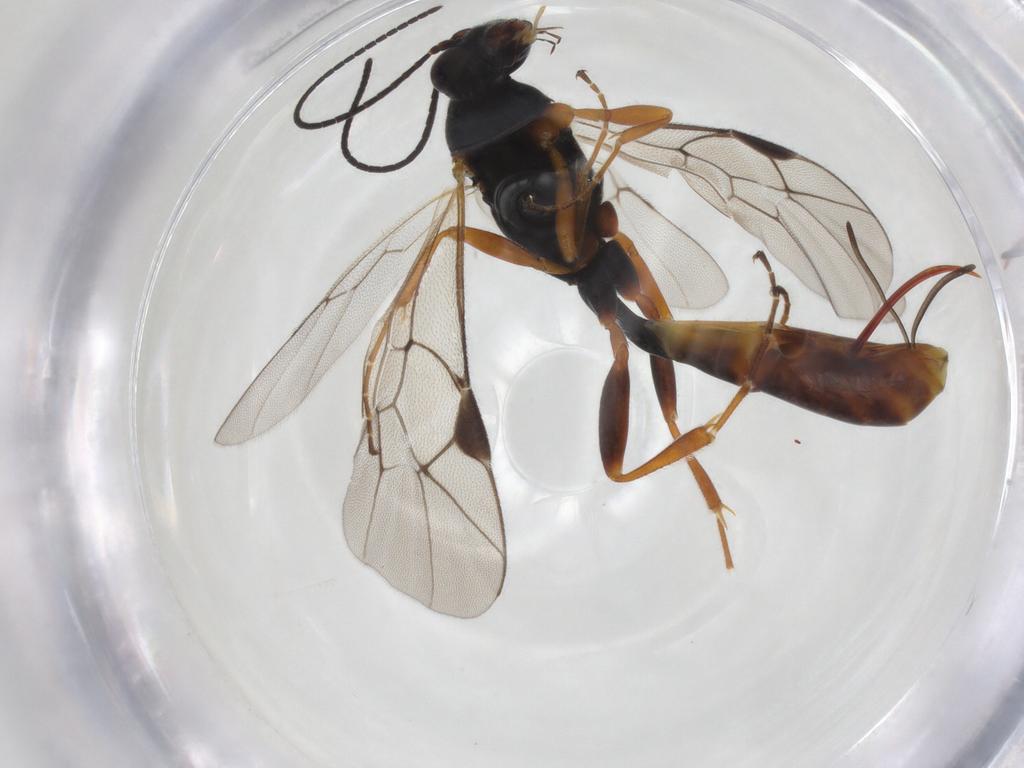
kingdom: Animalia
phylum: Arthropoda
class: Insecta
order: Hymenoptera
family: Ichneumonidae
